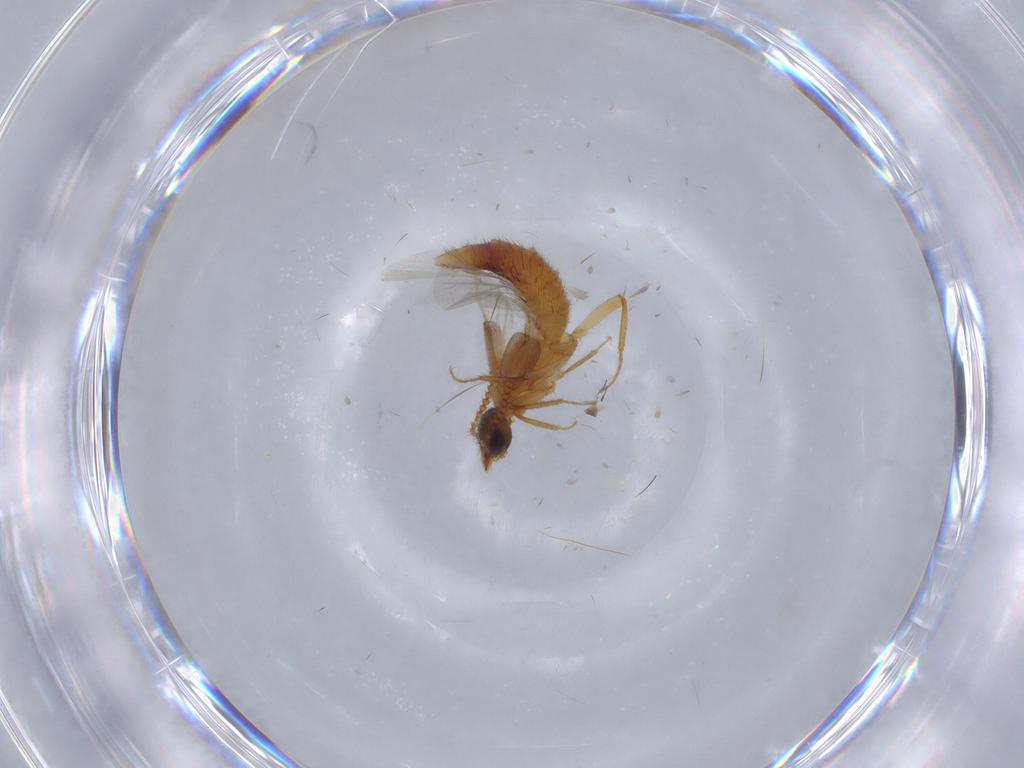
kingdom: Animalia
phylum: Arthropoda
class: Insecta
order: Coleoptera
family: Staphylinidae
